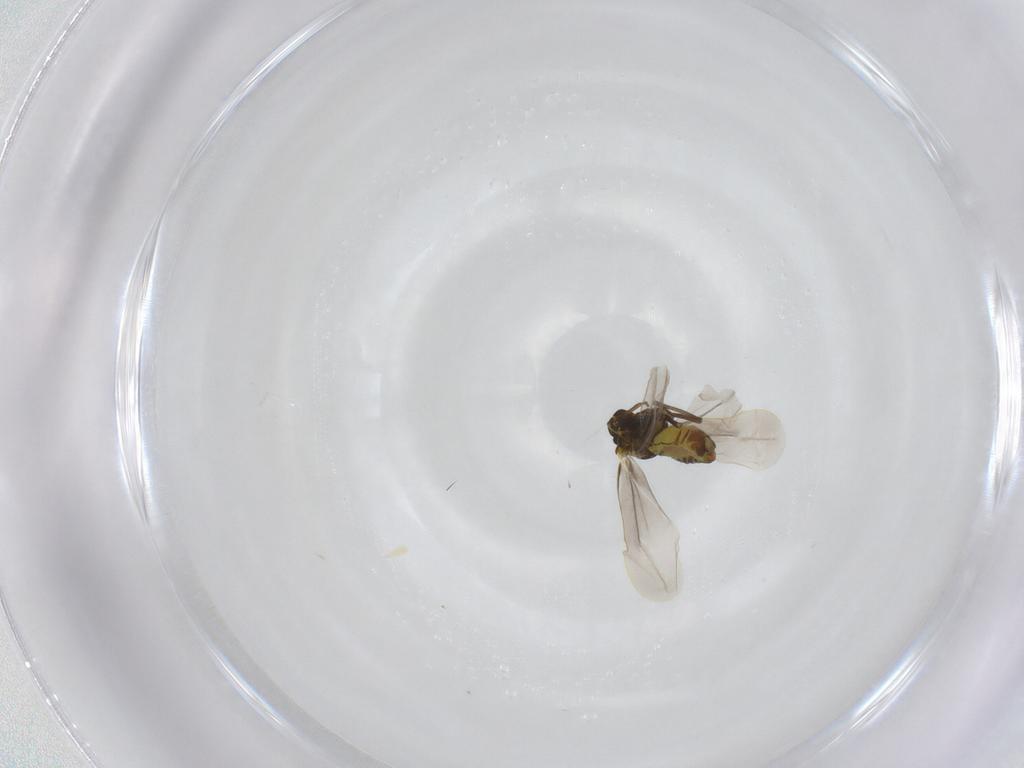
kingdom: Animalia
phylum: Arthropoda
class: Insecta
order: Hemiptera
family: Aleyrodidae
